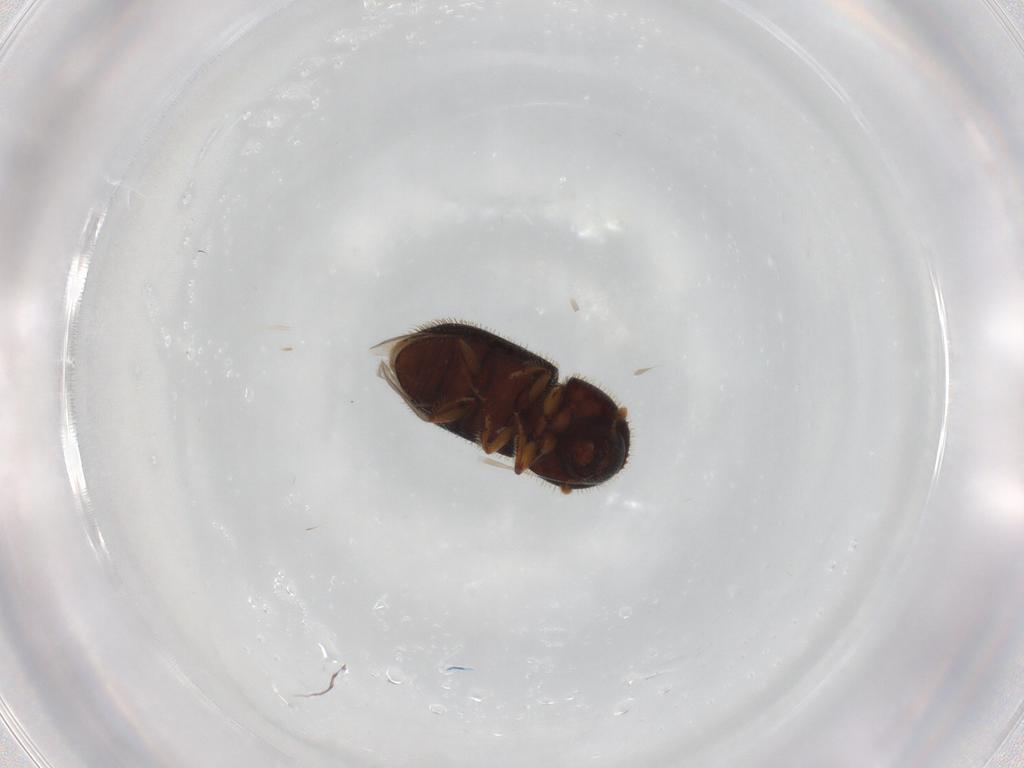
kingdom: Animalia
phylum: Arthropoda
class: Insecta
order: Coleoptera
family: Curculionidae
